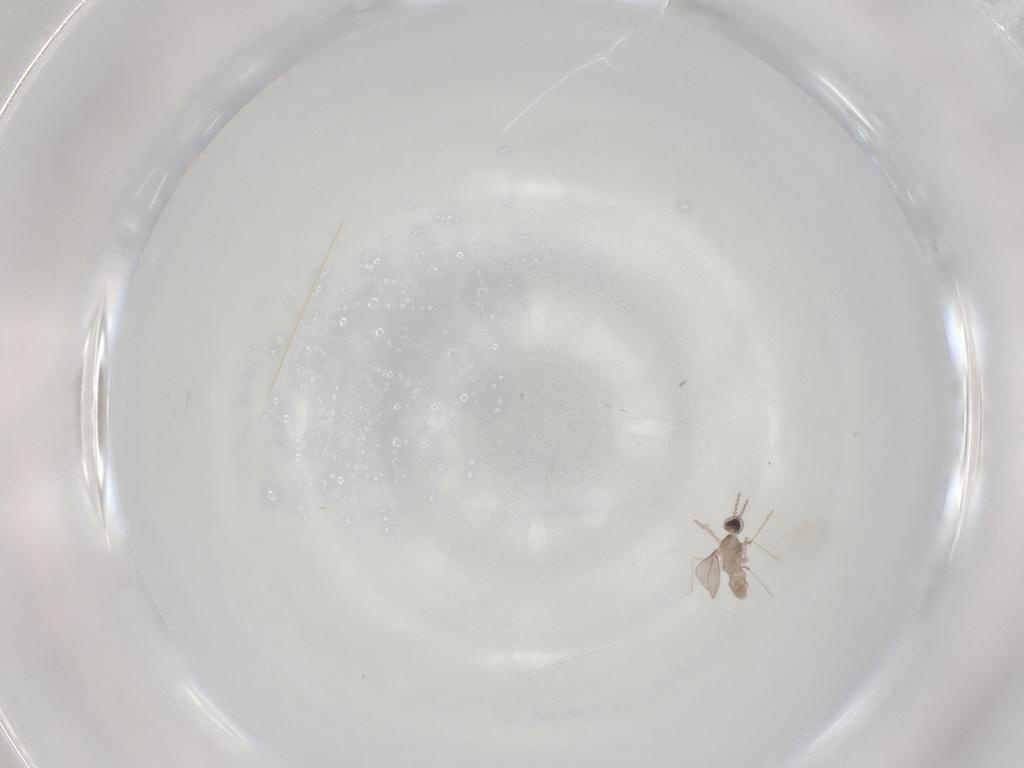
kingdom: Animalia
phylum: Arthropoda
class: Insecta
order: Diptera
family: Cecidomyiidae
